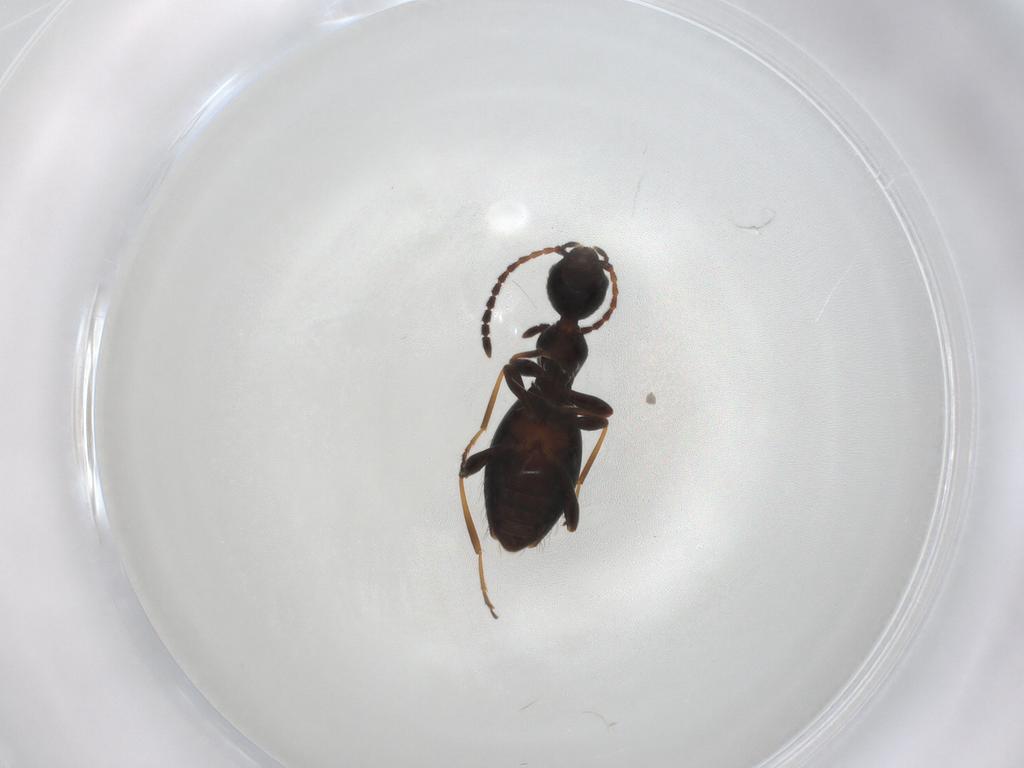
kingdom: Animalia
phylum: Arthropoda
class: Insecta
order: Coleoptera
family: Anthicidae
